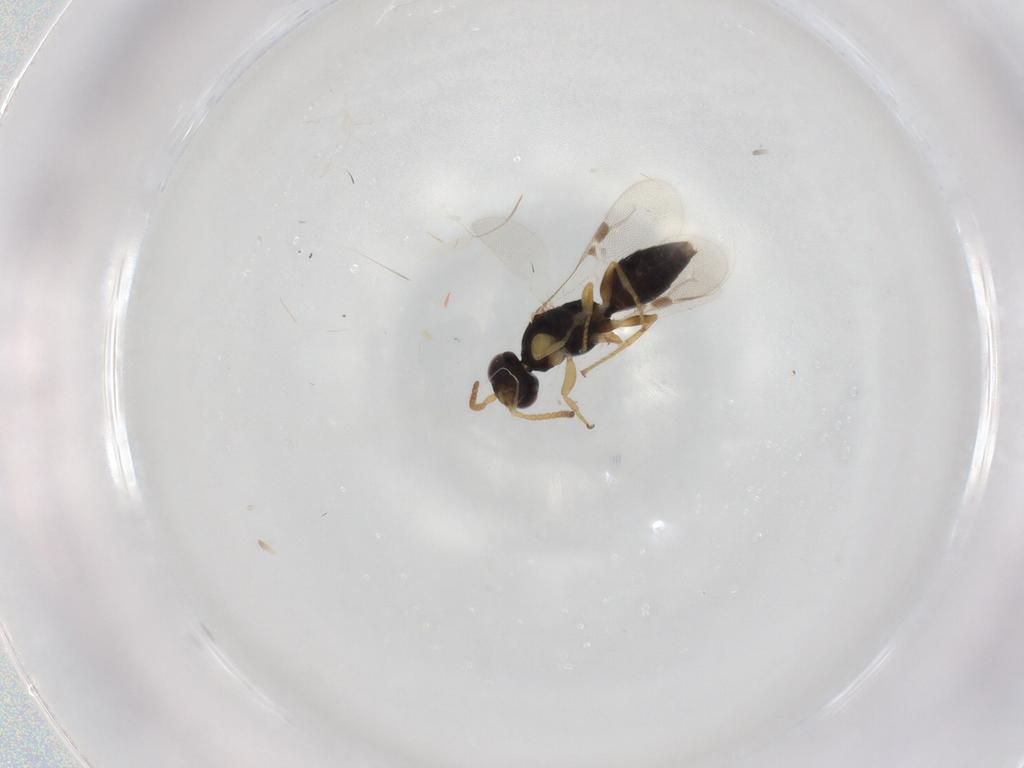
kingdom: Animalia
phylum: Arthropoda
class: Insecta
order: Hymenoptera
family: Bethylidae
